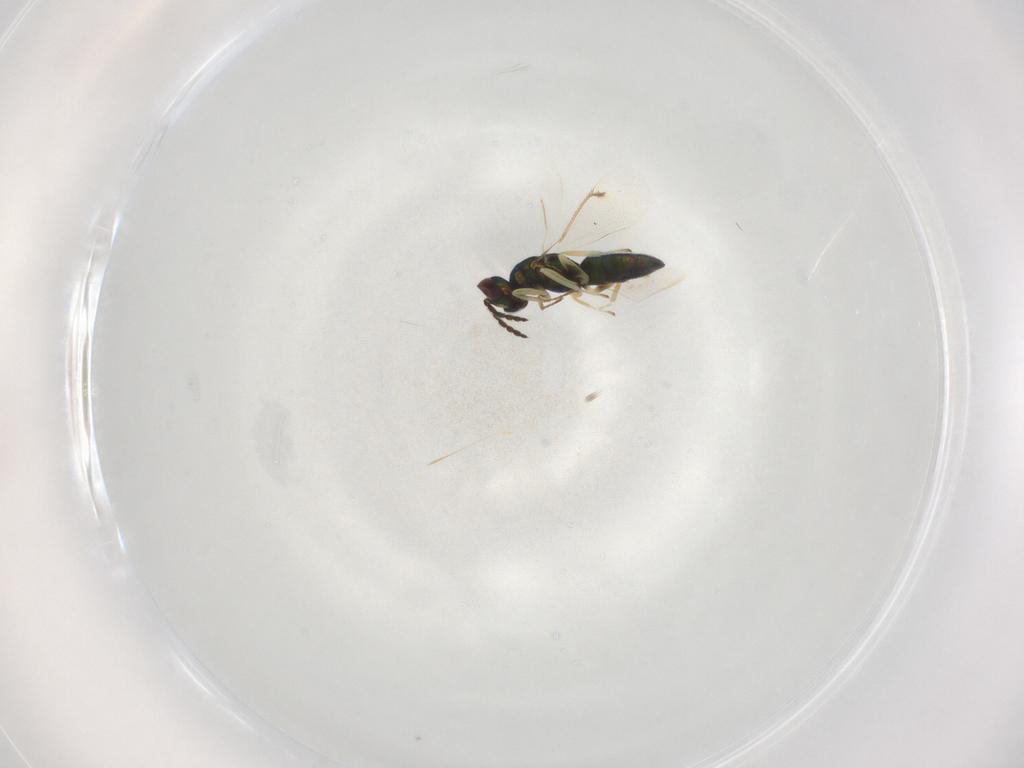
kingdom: Animalia
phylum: Arthropoda
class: Insecta
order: Hymenoptera
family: Eulophidae
